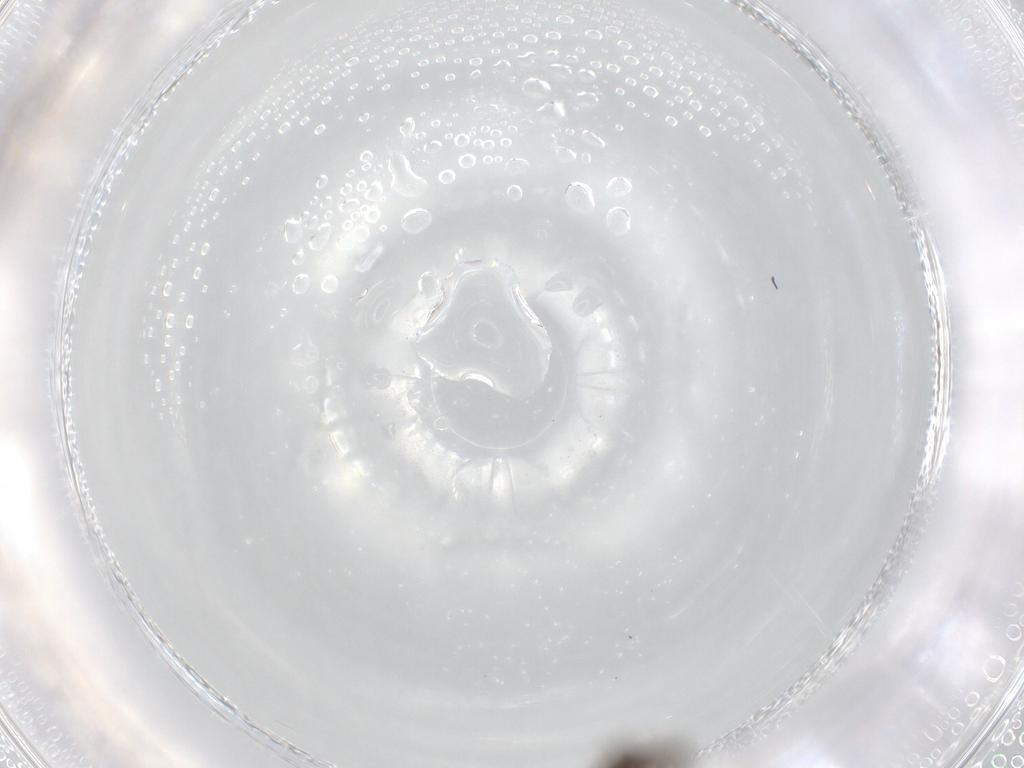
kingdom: Animalia
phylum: Arthropoda
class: Insecta
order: Diptera
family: Ceratopogonidae
